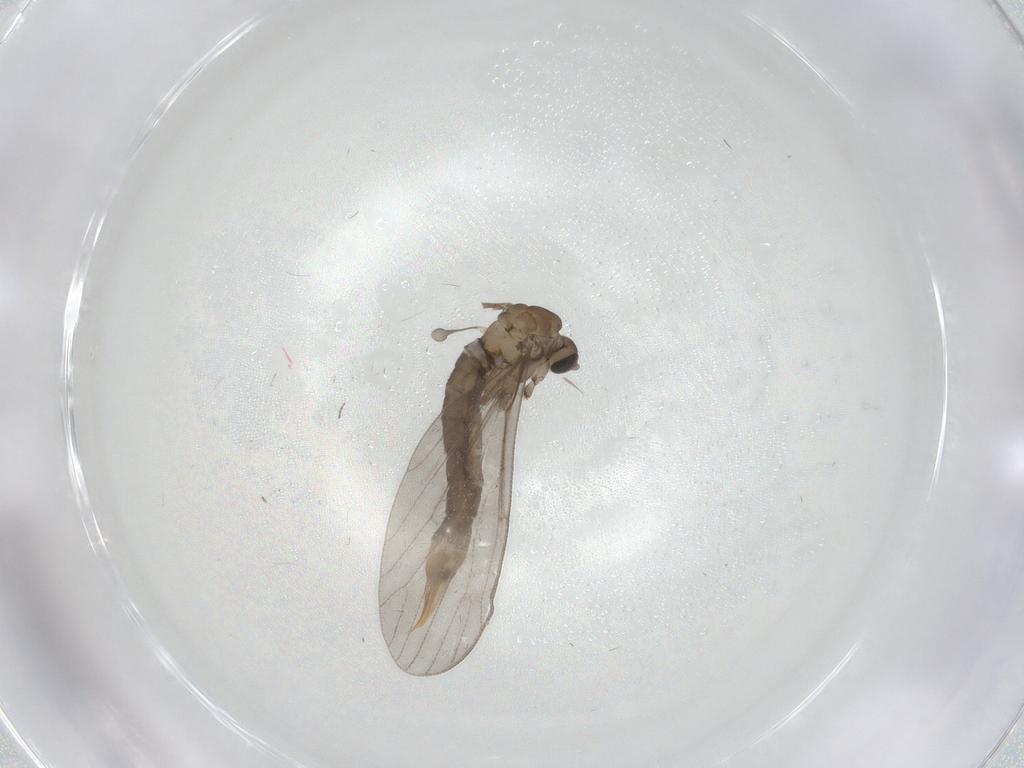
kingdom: Animalia
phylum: Arthropoda
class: Insecta
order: Diptera
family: Limoniidae
